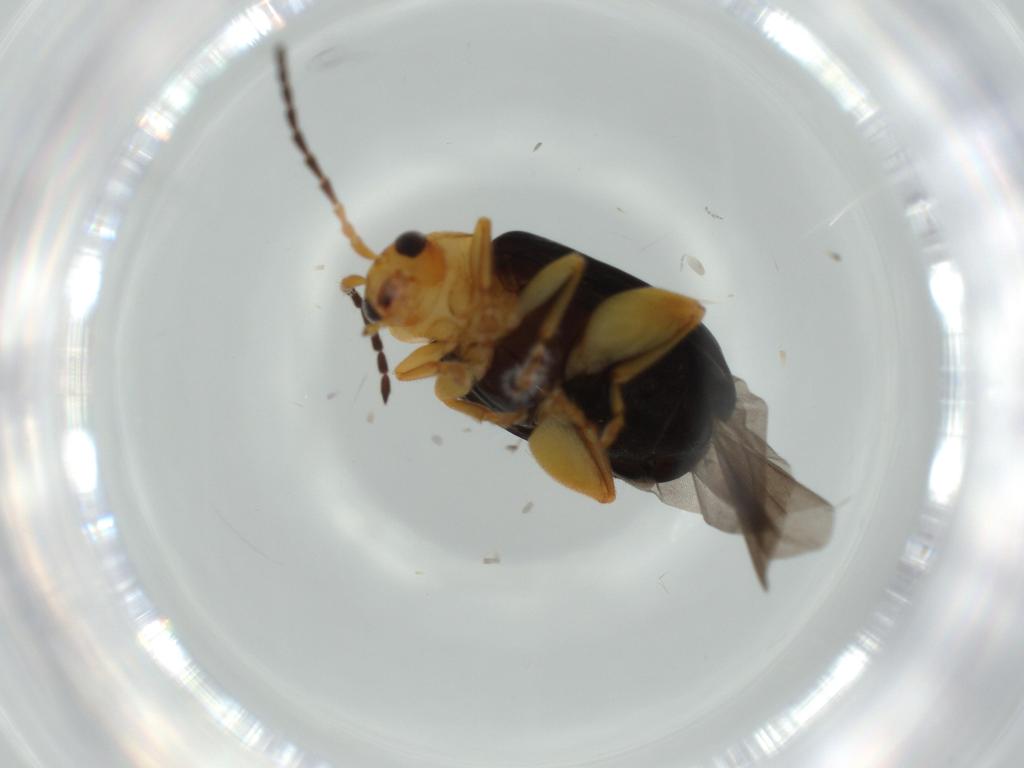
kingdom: Animalia
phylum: Arthropoda
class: Insecta
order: Coleoptera
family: Chrysomelidae
